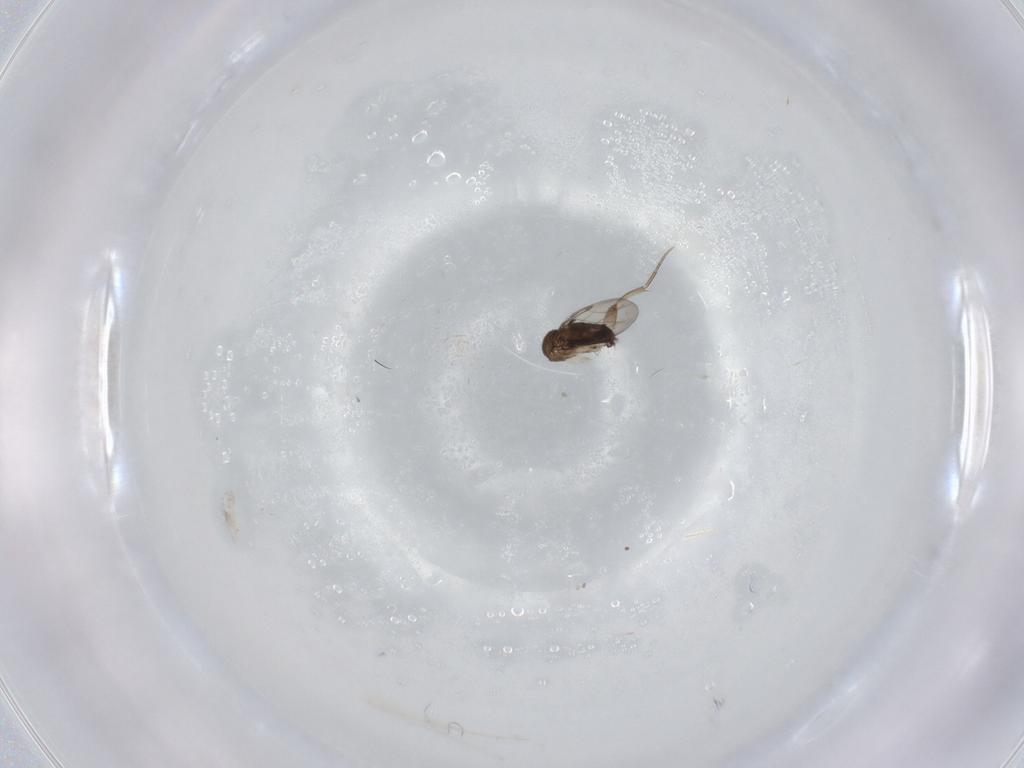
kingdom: Animalia
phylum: Arthropoda
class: Insecta
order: Diptera
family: Phoridae
